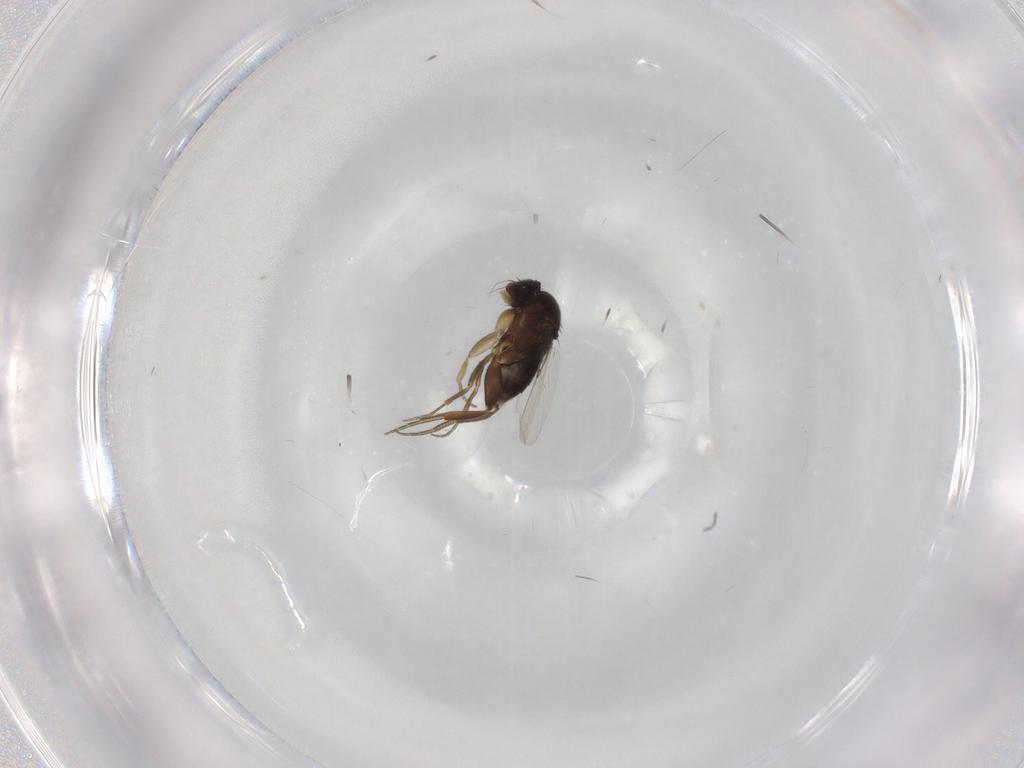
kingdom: Animalia
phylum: Arthropoda
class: Insecta
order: Diptera
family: Phoridae
